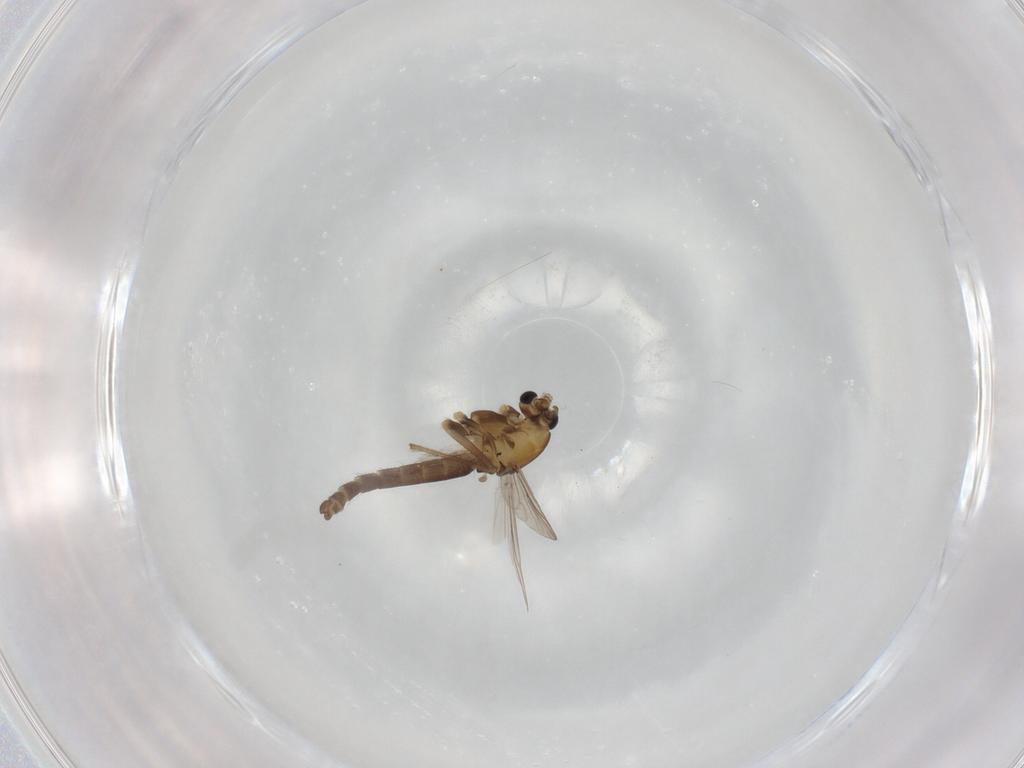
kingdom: Animalia
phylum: Arthropoda
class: Insecta
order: Diptera
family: Chironomidae
